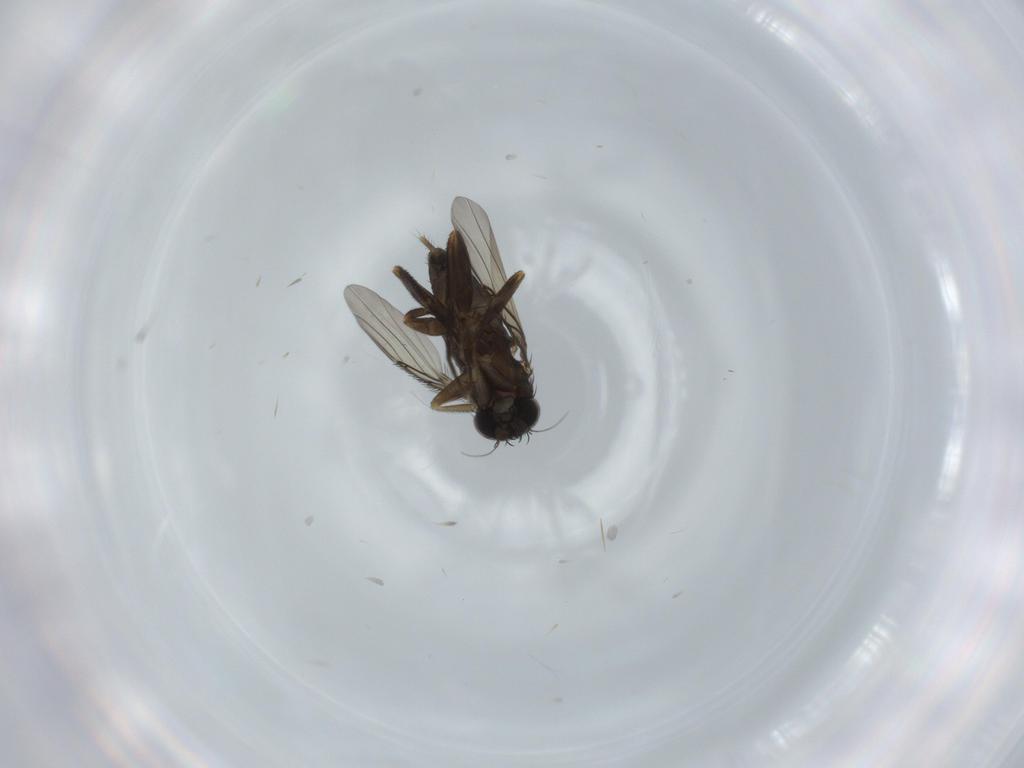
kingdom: Animalia
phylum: Arthropoda
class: Insecta
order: Diptera
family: Phoridae
